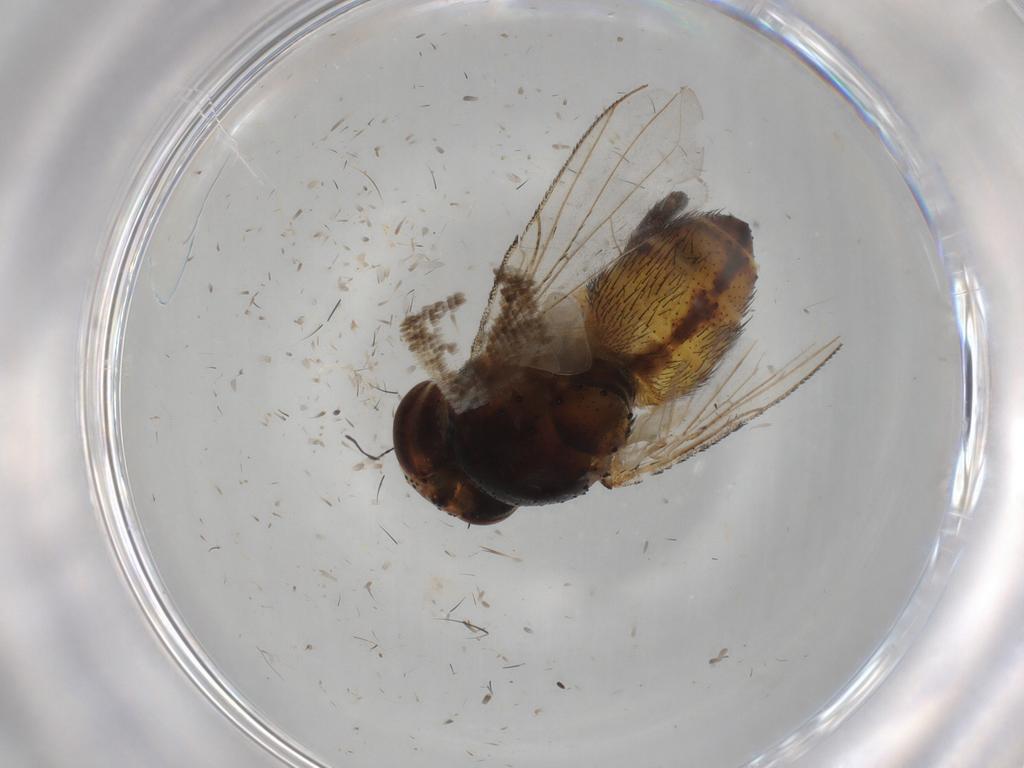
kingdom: Animalia
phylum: Arthropoda
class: Insecta
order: Diptera
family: Glossinidae
